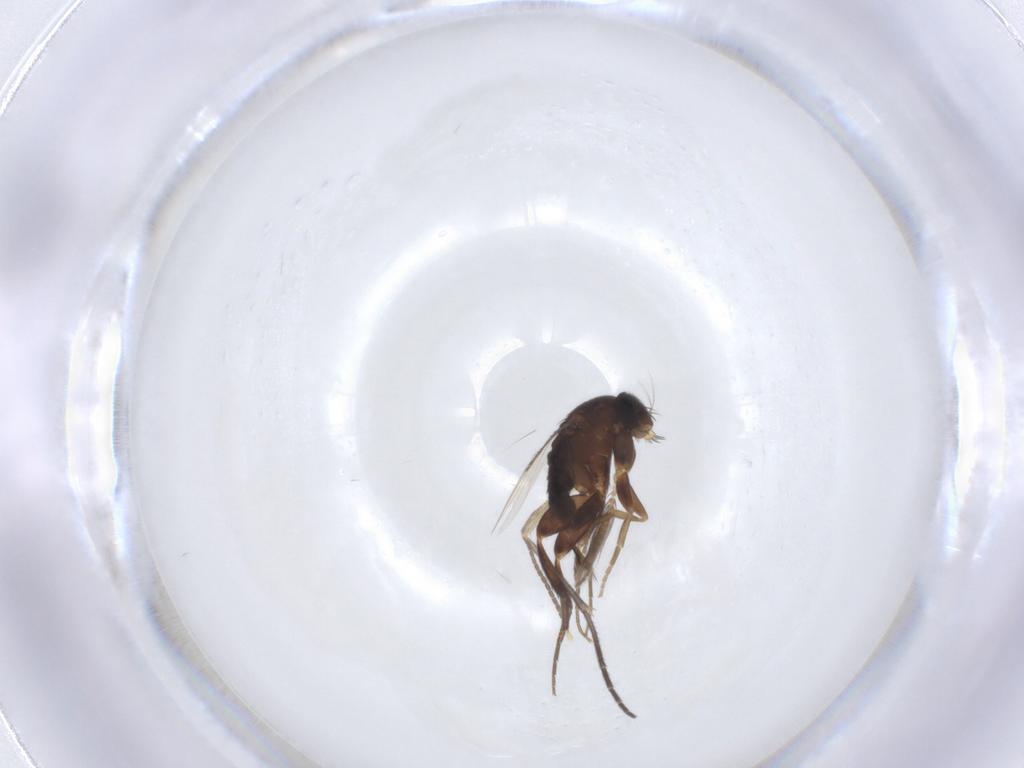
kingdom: Animalia
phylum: Arthropoda
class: Insecta
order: Diptera
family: Phoridae
